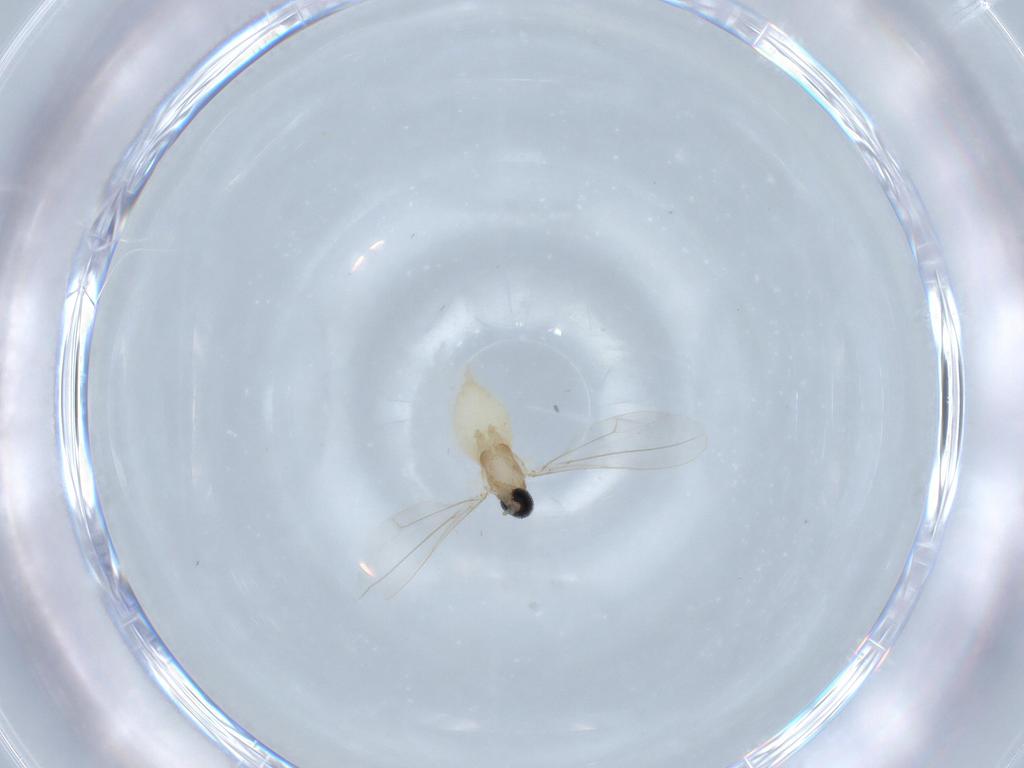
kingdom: Animalia
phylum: Arthropoda
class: Insecta
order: Diptera
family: Cecidomyiidae
